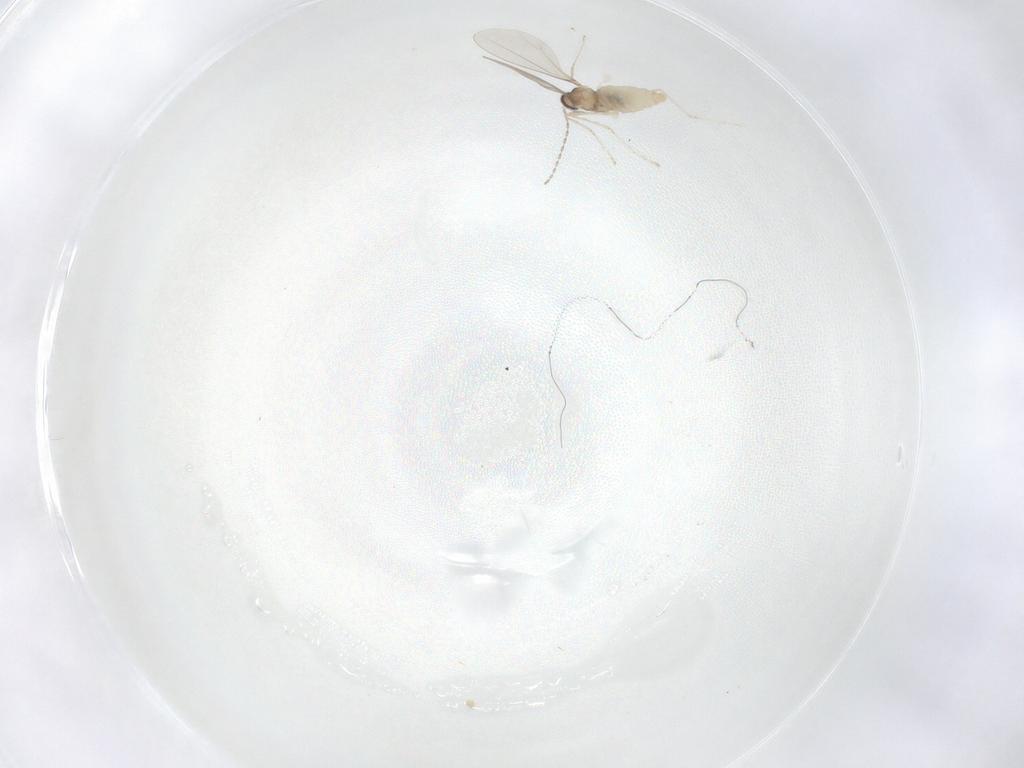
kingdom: Animalia
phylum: Arthropoda
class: Insecta
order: Diptera
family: Cecidomyiidae
